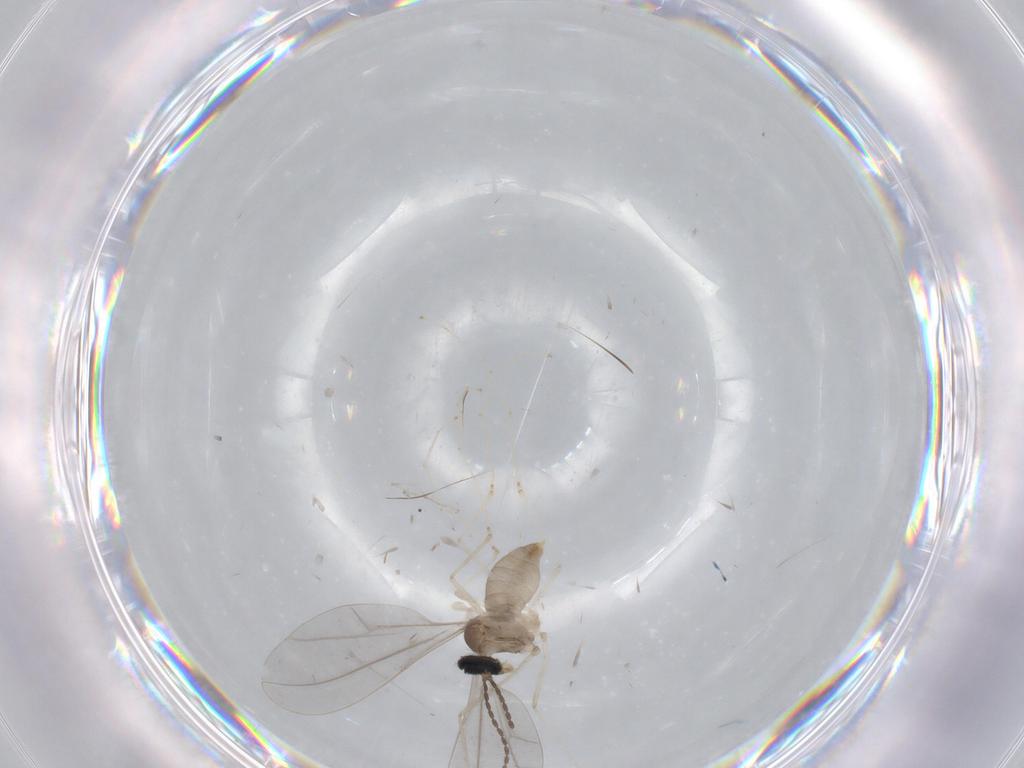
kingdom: Animalia
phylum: Arthropoda
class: Insecta
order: Diptera
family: Cecidomyiidae
